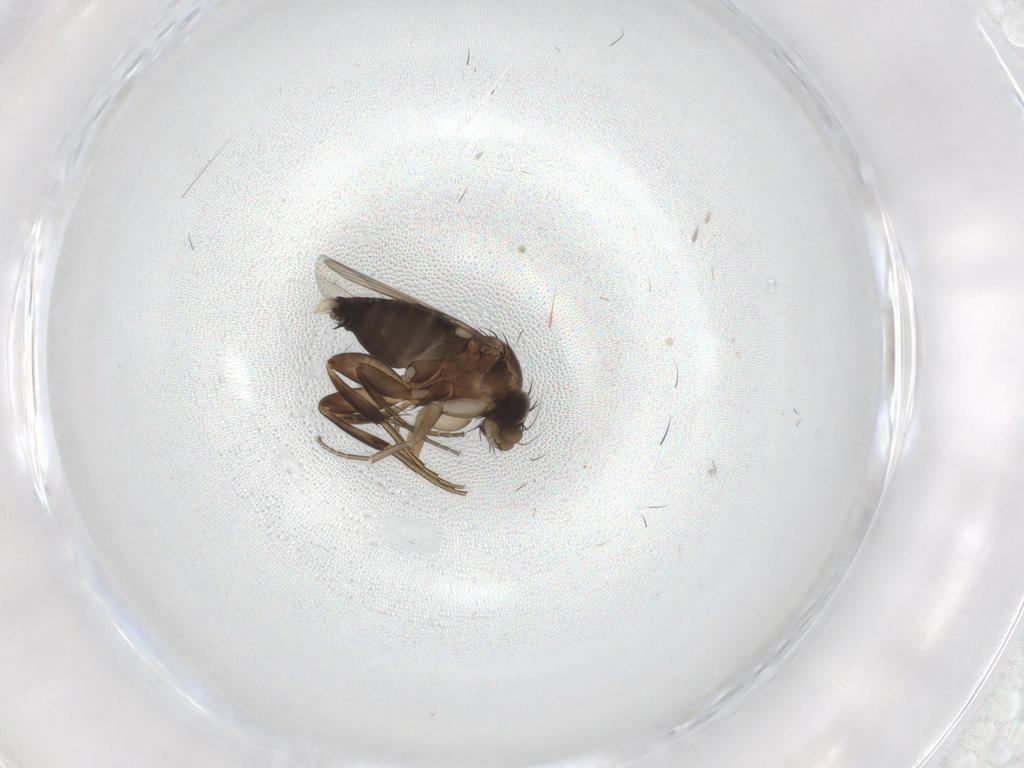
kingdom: Animalia
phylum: Arthropoda
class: Insecta
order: Diptera
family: Phoridae
